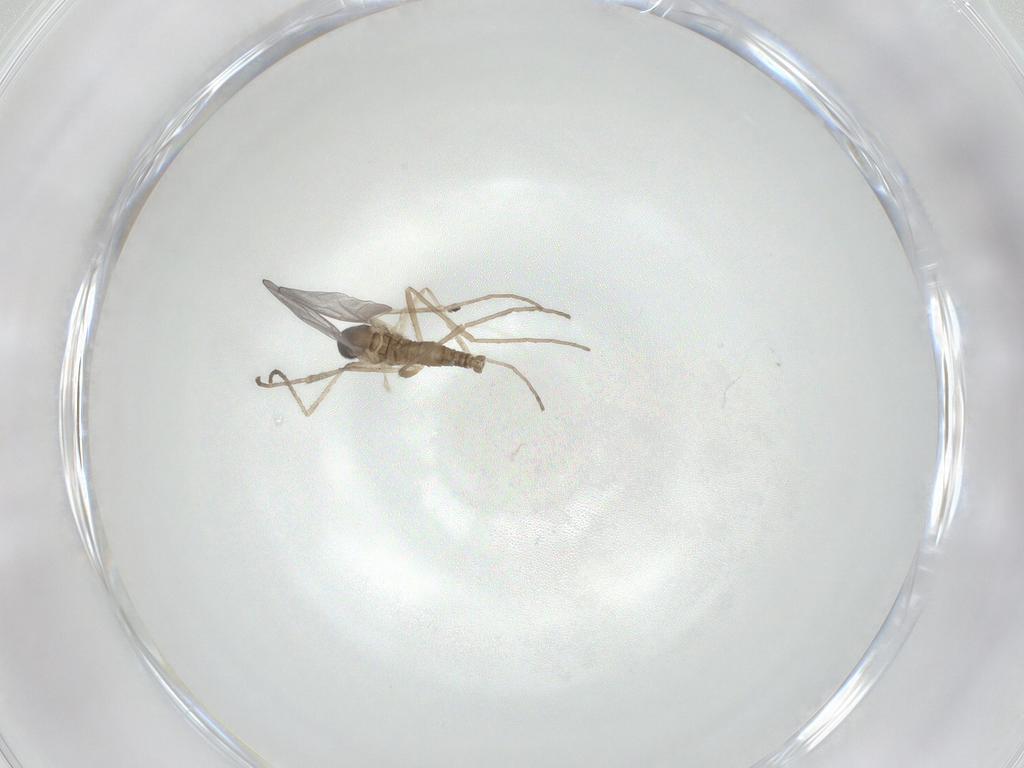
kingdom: Animalia
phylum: Arthropoda
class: Insecta
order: Diptera
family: Cecidomyiidae
